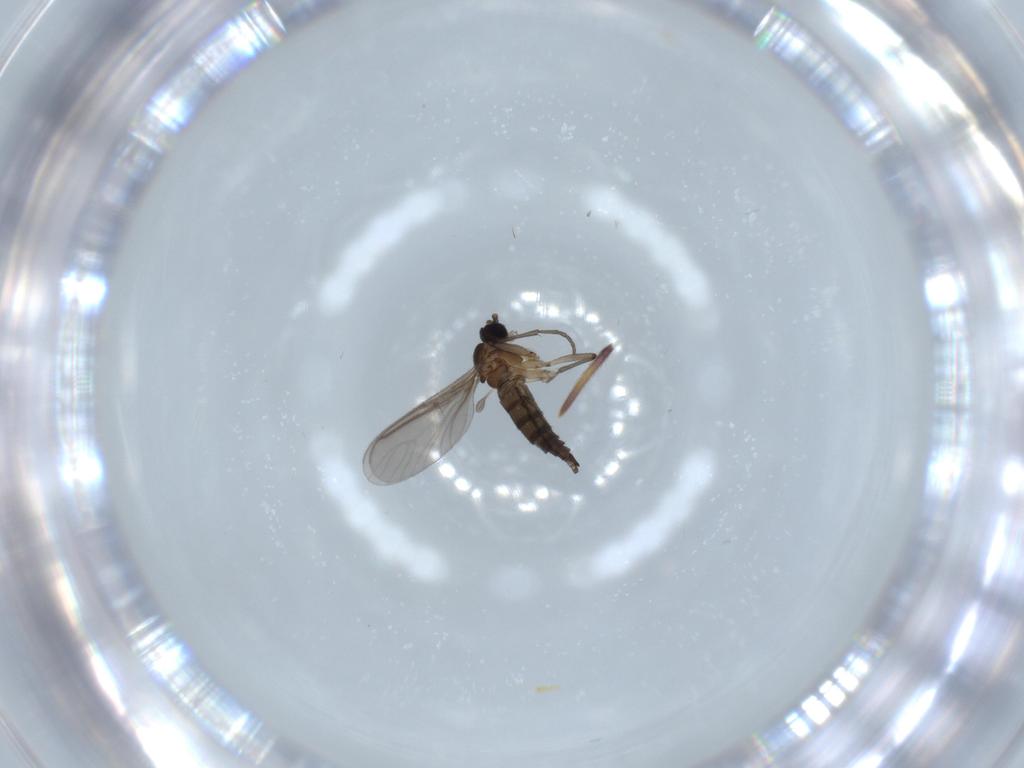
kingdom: Animalia
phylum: Arthropoda
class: Insecta
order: Diptera
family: Sciaridae
